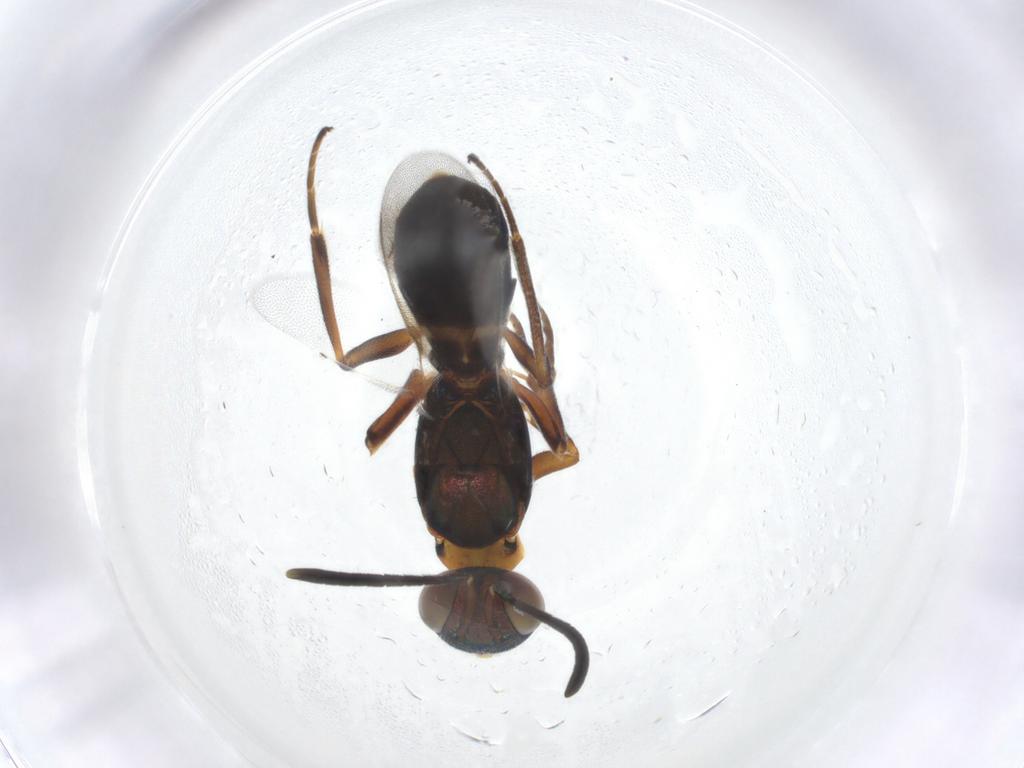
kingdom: Animalia
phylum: Arthropoda
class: Insecta
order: Hymenoptera
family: Eupelmidae
